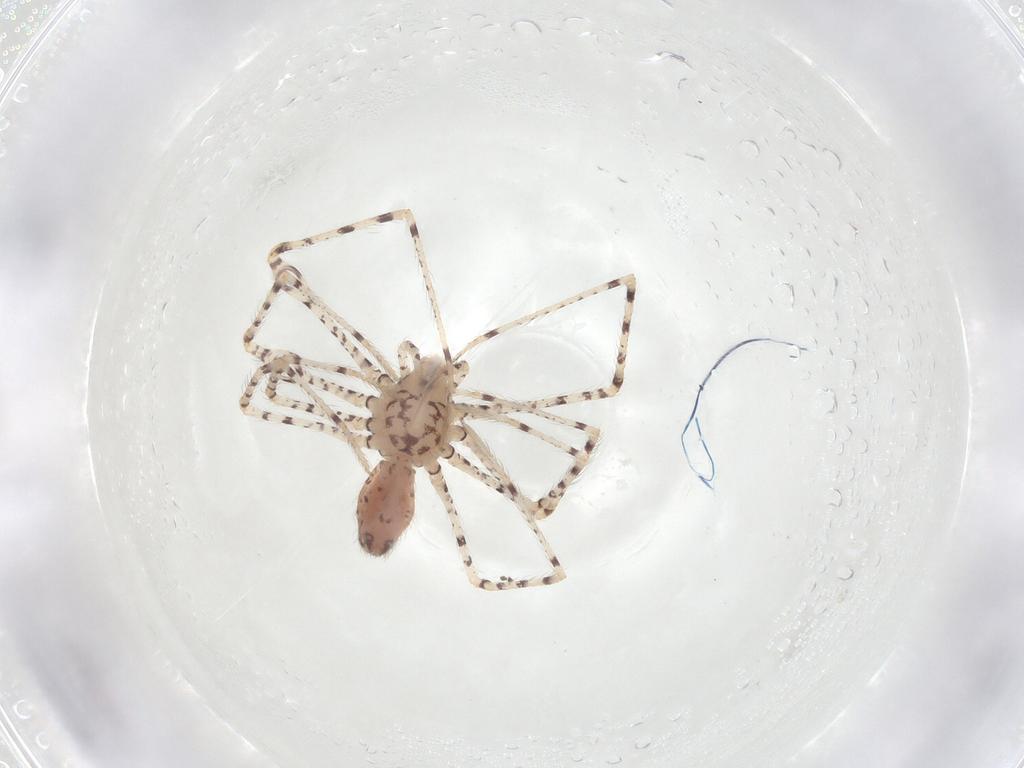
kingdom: Animalia
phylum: Arthropoda
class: Arachnida
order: Araneae
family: Scytodidae
